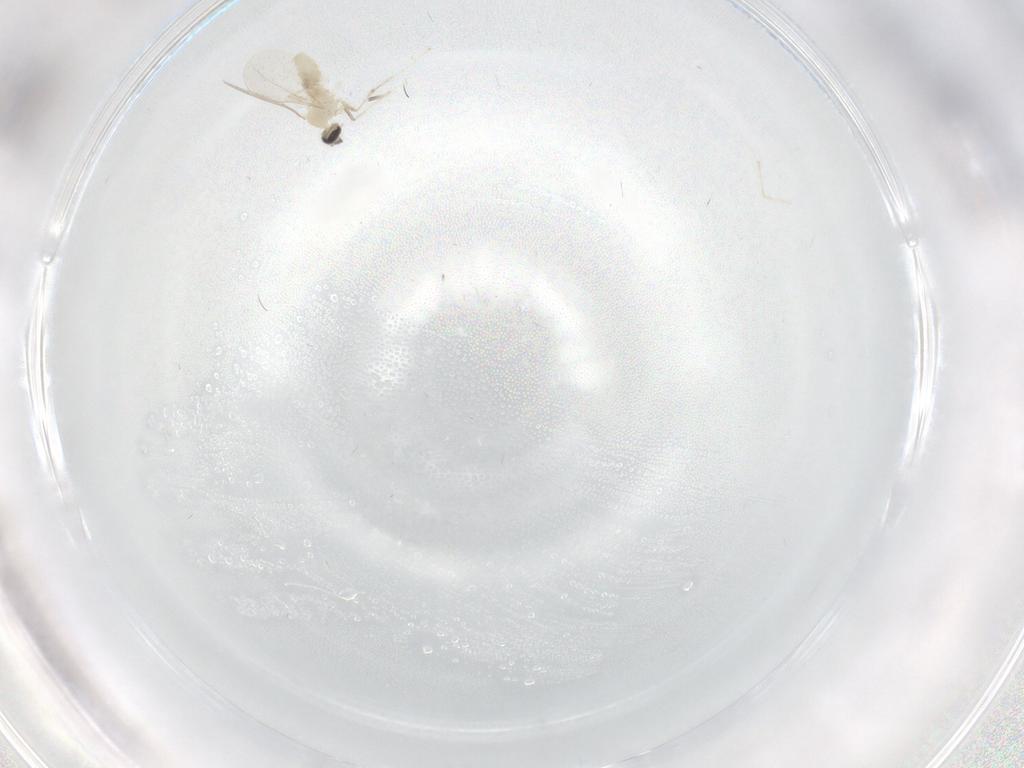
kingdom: Animalia
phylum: Arthropoda
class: Insecta
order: Diptera
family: Cecidomyiidae
